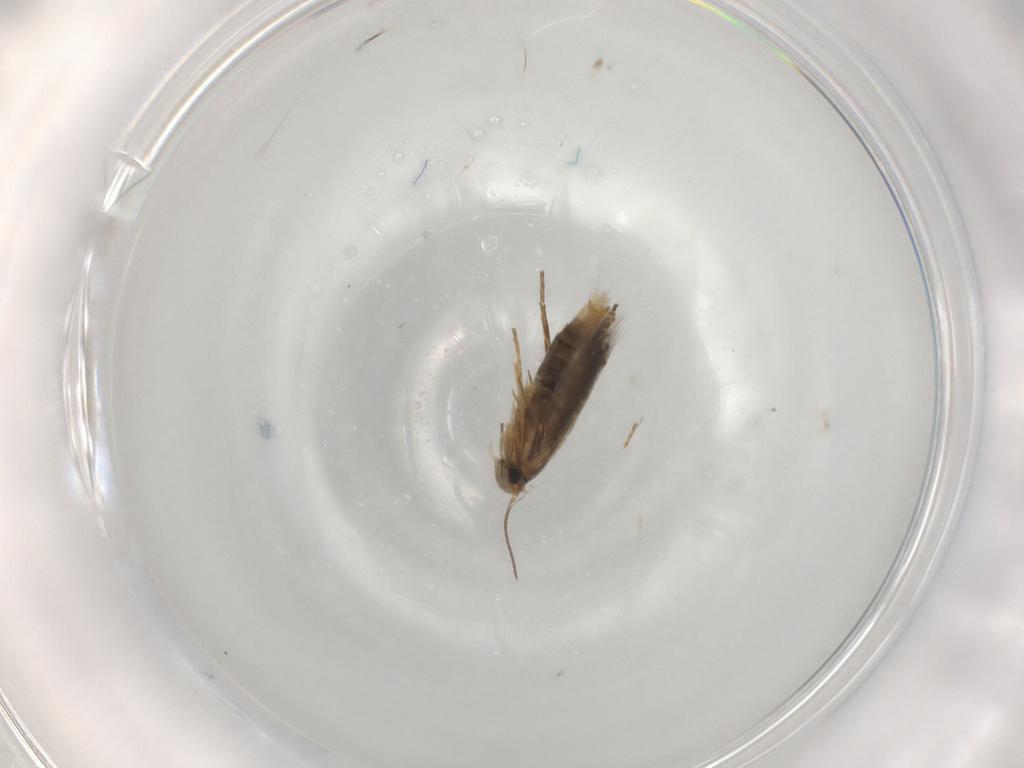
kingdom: Animalia
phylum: Arthropoda
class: Insecta
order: Lepidoptera
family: Heliozelidae
